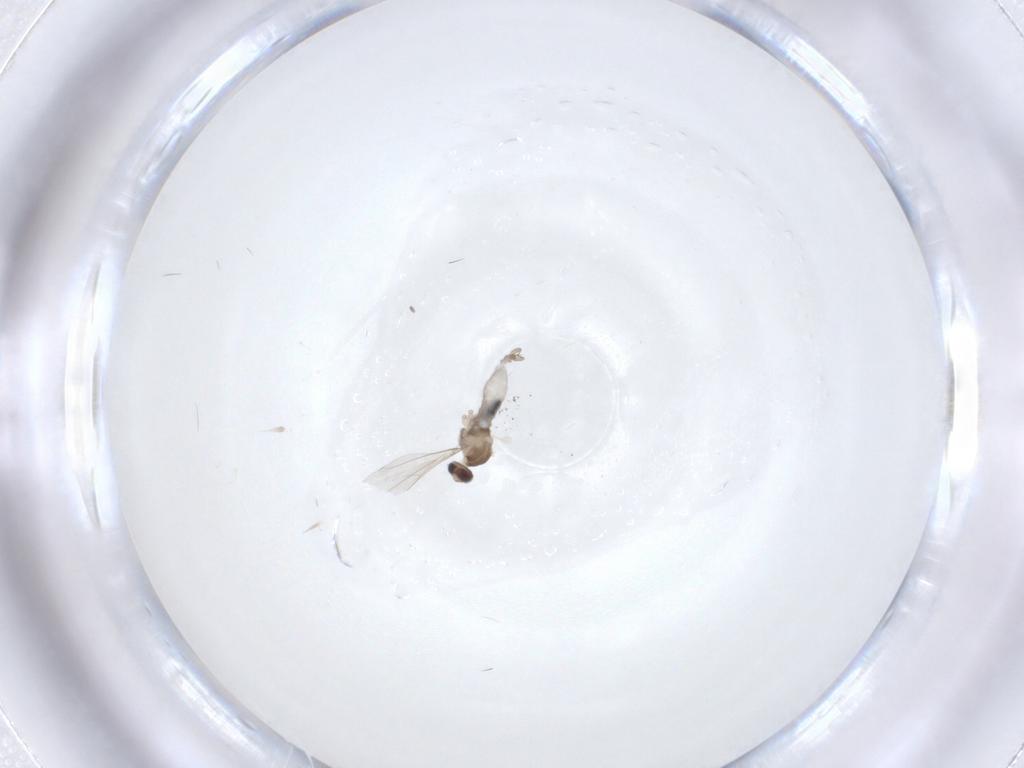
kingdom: Animalia
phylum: Arthropoda
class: Insecta
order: Diptera
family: Cecidomyiidae
